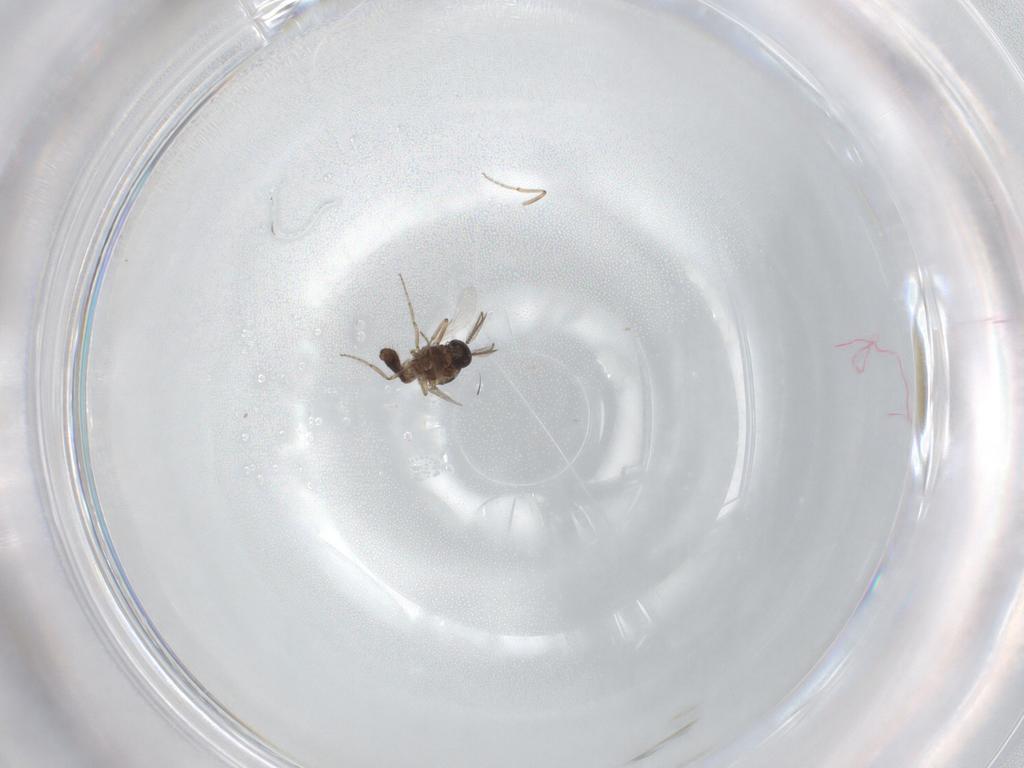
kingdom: Animalia
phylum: Arthropoda
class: Insecta
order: Diptera
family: Ceratopogonidae
